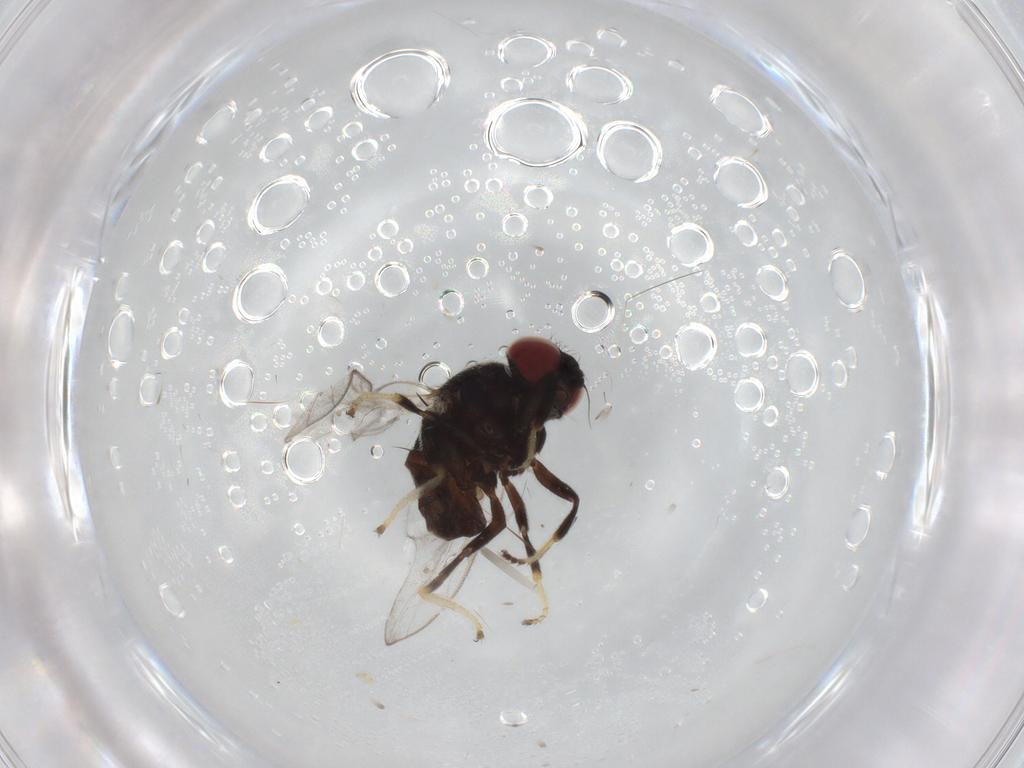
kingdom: Animalia
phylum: Arthropoda
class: Insecta
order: Diptera
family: Chloropidae
